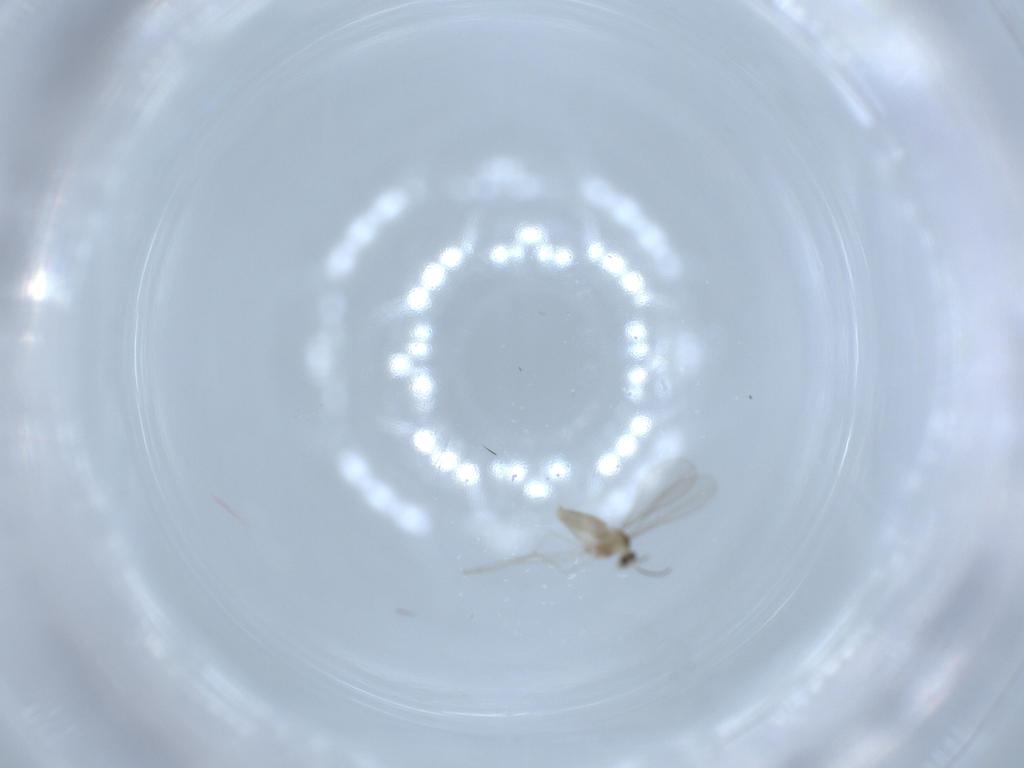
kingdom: Animalia
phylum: Arthropoda
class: Insecta
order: Diptera
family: Cecidomyiidae
